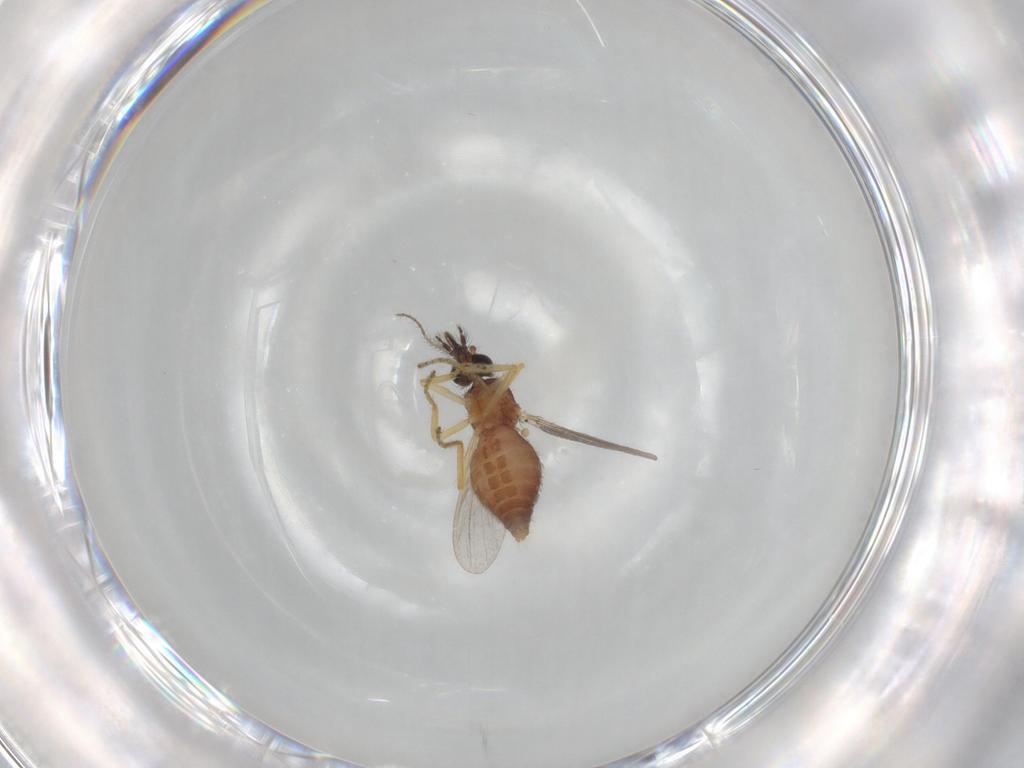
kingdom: Animalia
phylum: Arthropoda
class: Insecta
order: Diptera
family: Ceratopogonidae
